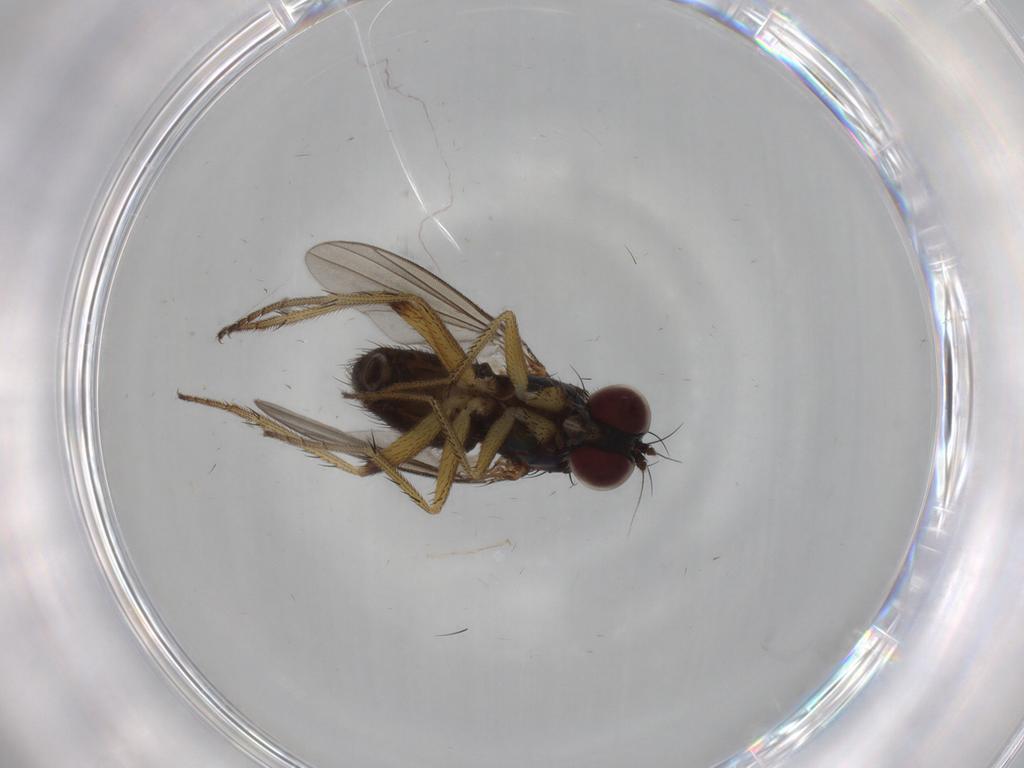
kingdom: Animalia
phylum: Arthropoda
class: Insecta
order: Diptera
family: Dolichopodidae
